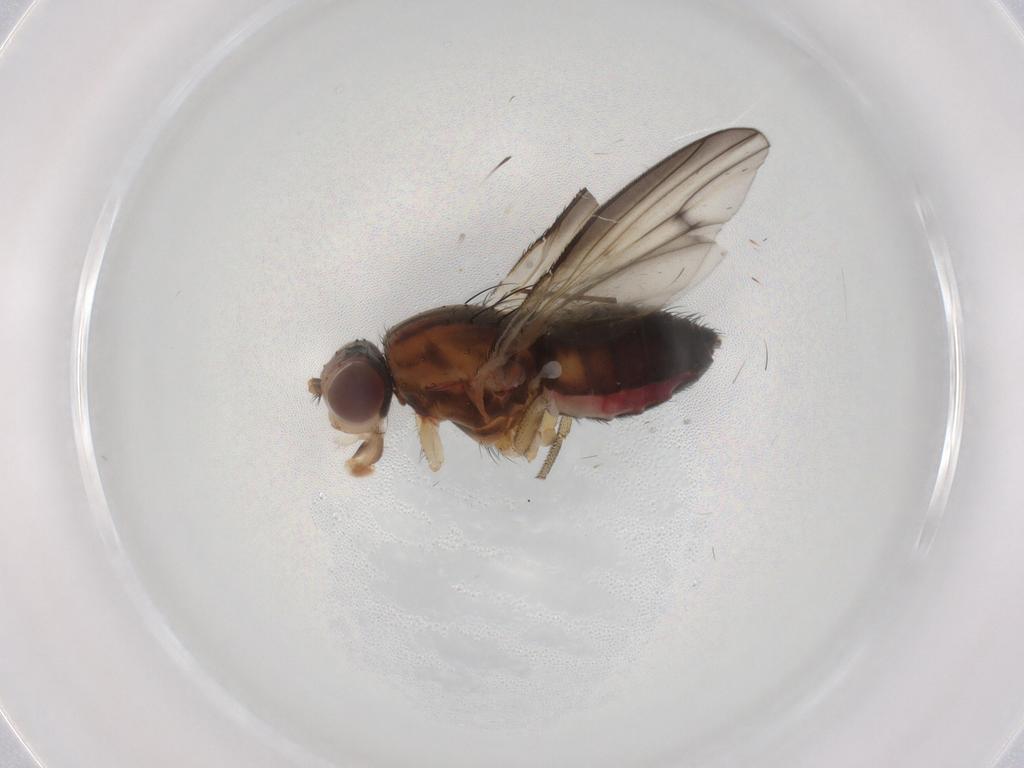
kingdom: Animalia
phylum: Arthropoda
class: Insecta
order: Diptera
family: Heleomyzidae
